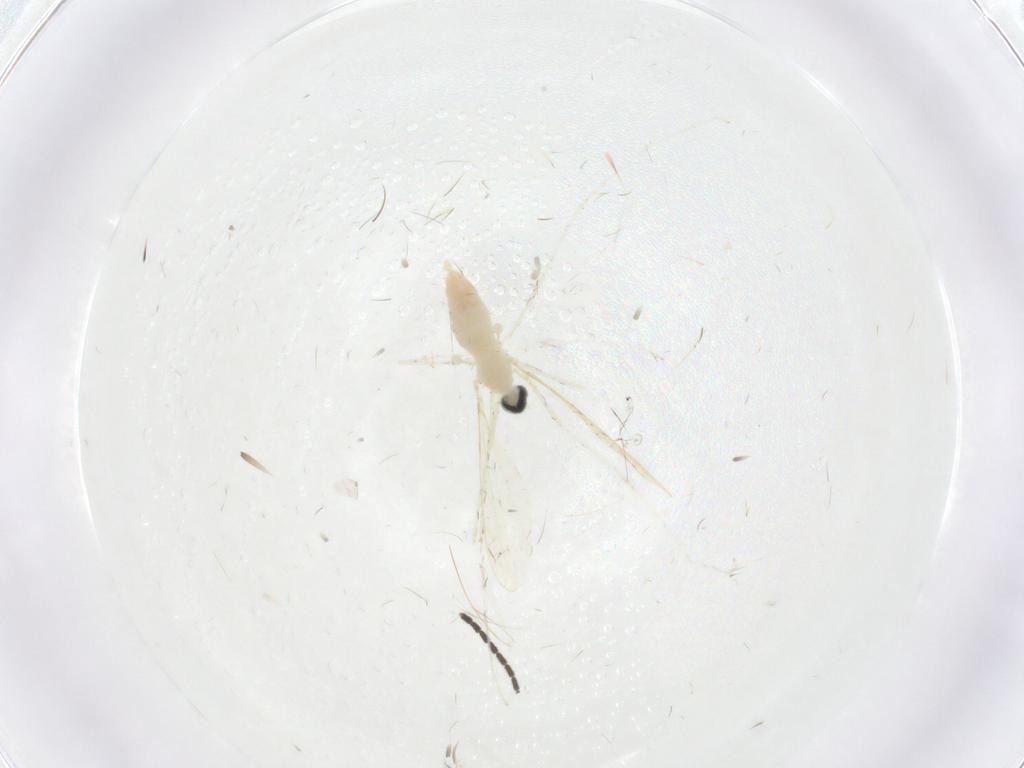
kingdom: Animalia
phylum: Arthropoda
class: Insecta
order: Diptera
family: Cecidomyiidae
